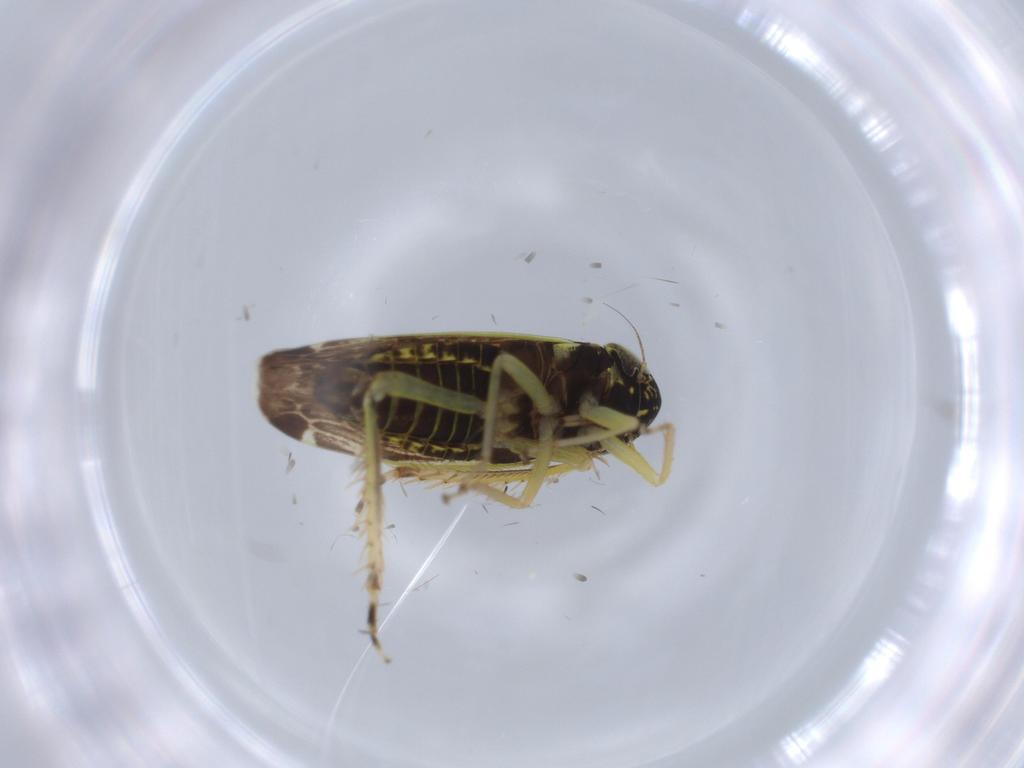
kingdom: Animalia
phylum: Arthropoda
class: Insecta
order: Hemiptera
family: Cicadellidae
